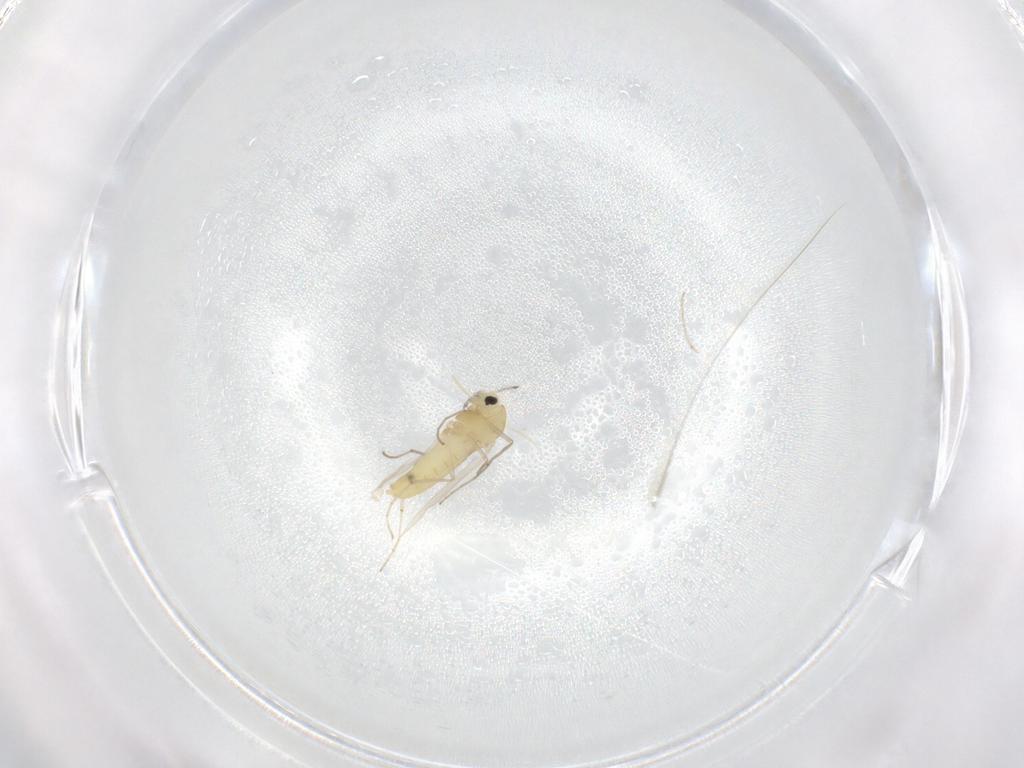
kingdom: Animalia
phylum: Arthropoda
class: Insecta
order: Diptera
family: Chironomidae
